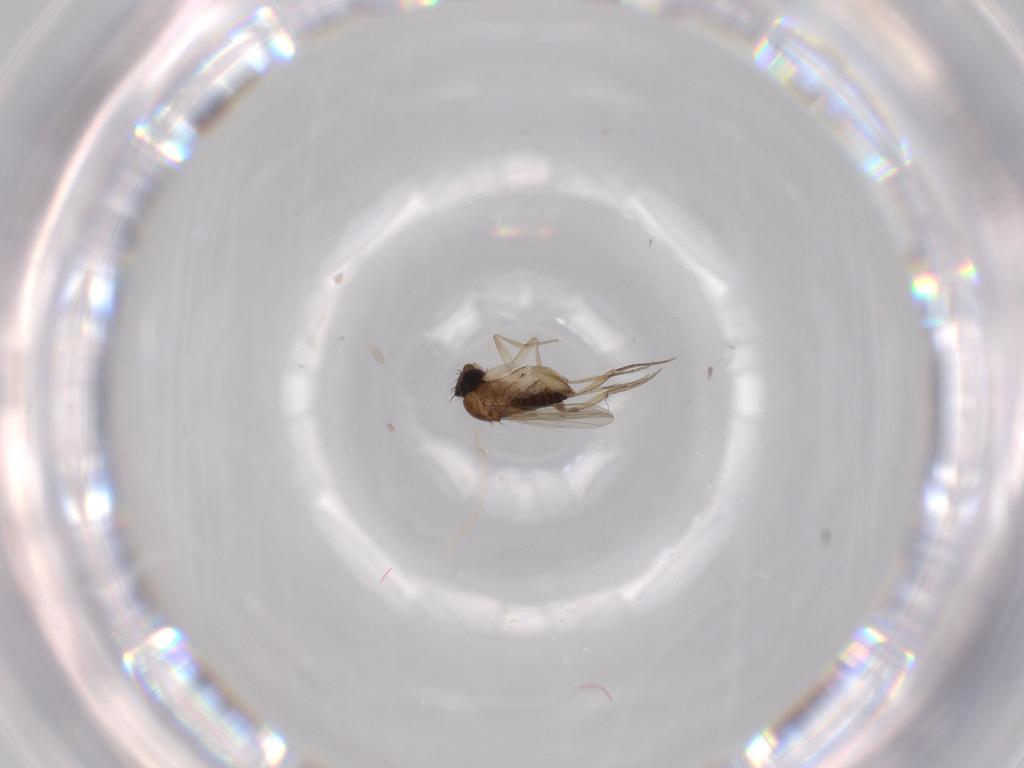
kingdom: Animalia
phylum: Arthropoda
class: Insecta
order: Diptera
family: Phoridae
